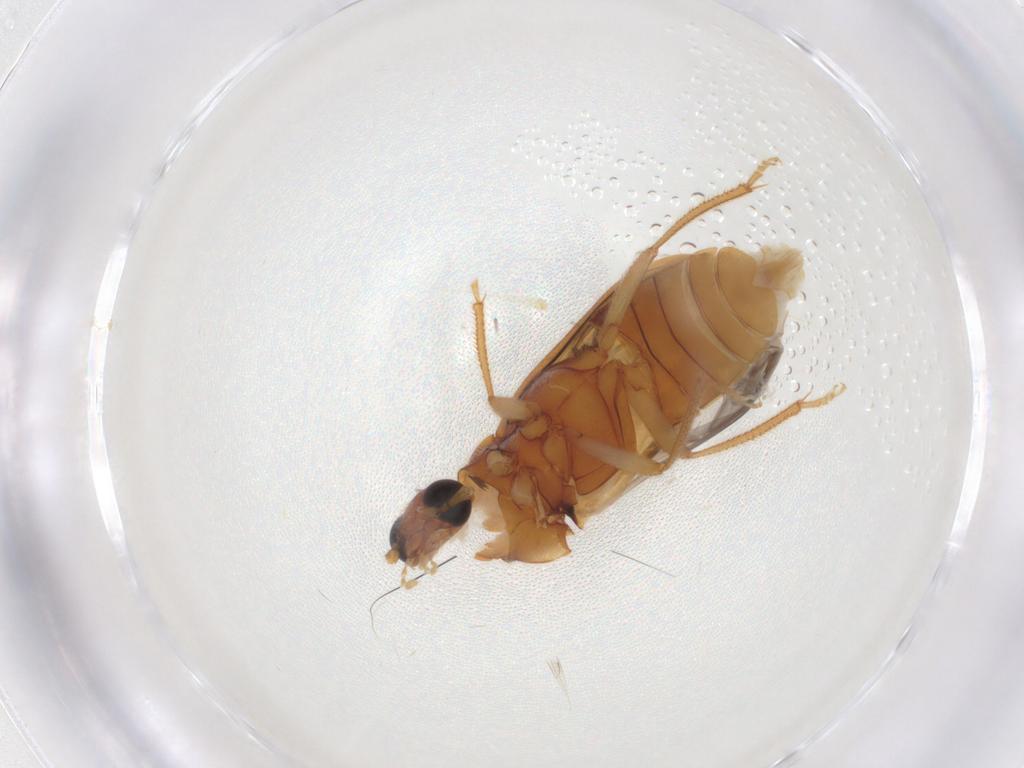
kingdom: Animalia
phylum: Arthropoda
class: Insecta
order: Coleoptera
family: Ptilodactylidae
